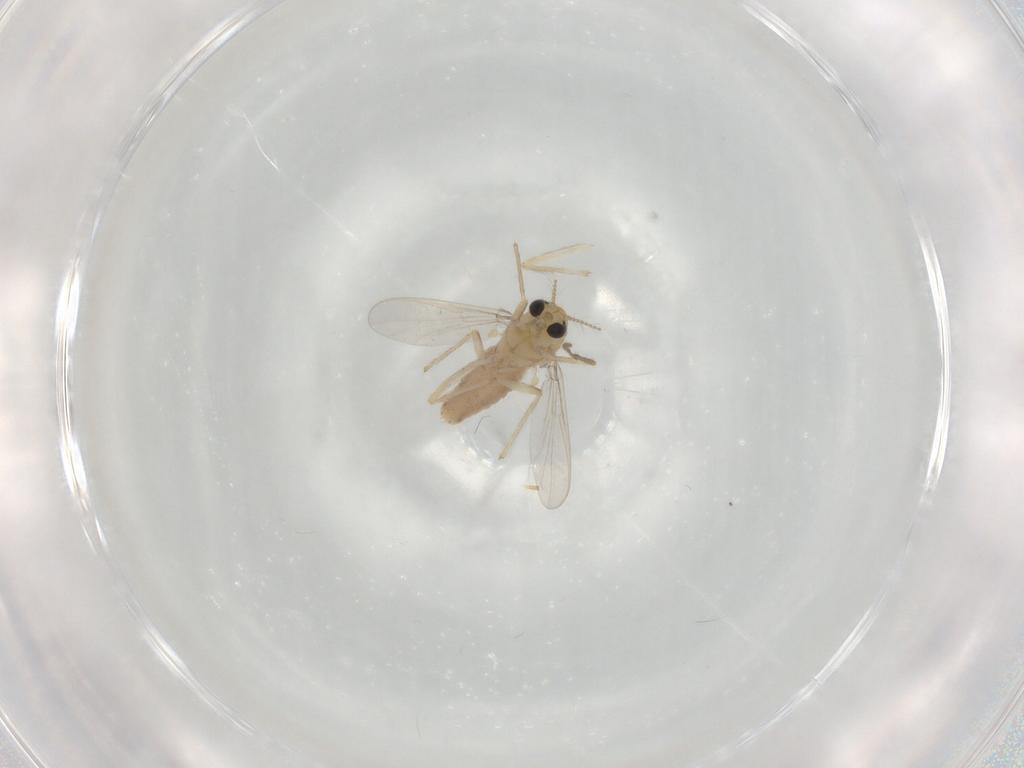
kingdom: Animalia
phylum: Arthropoda
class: Insecta
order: Diptera
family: Chironomidae
